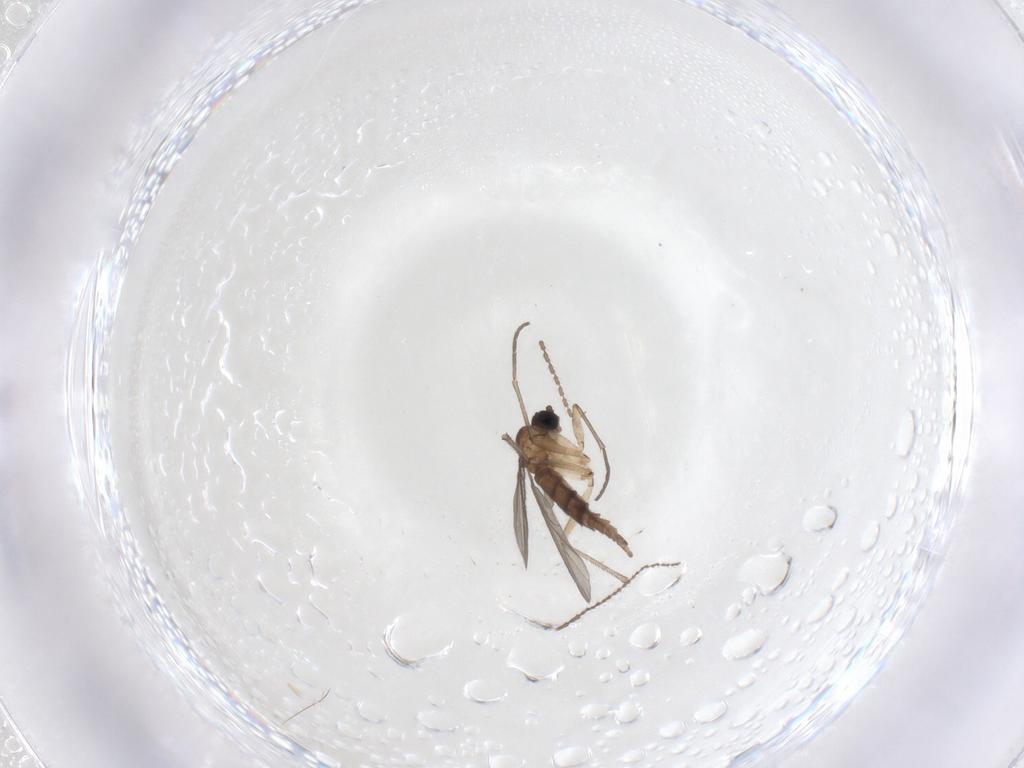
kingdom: Animalia
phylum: Arthropoda
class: Insecta
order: Diptera
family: Sciaridae
